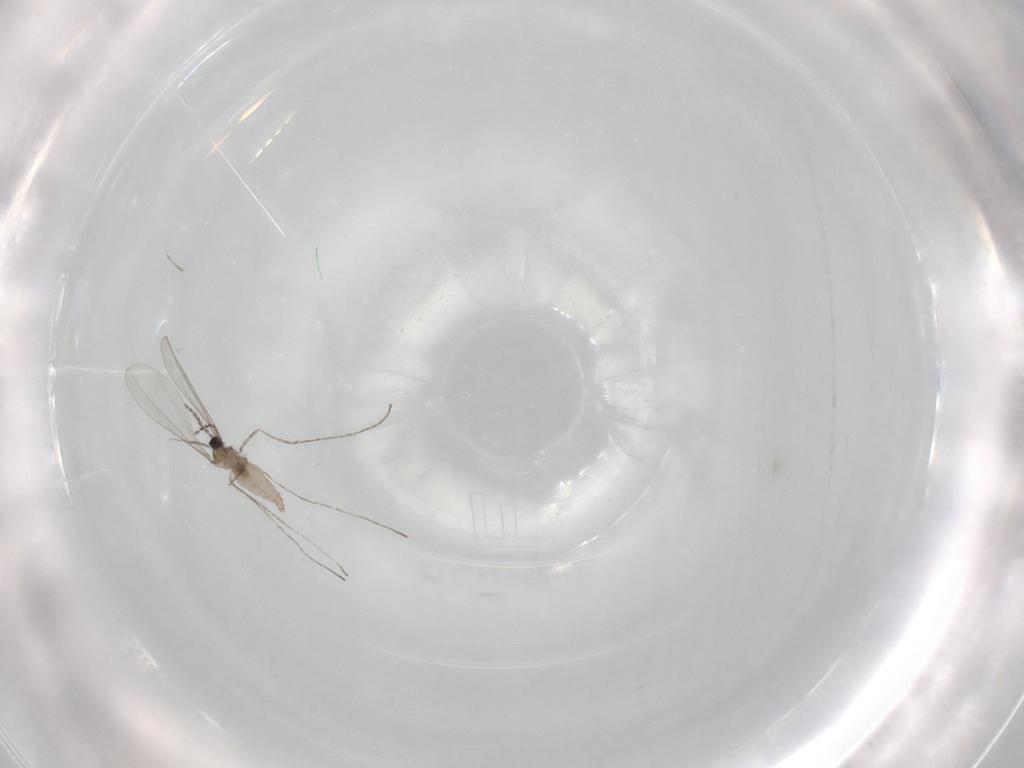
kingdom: Animalia
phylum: Arthropoda
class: Insecta
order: Diptera
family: Cecidomyiidae
